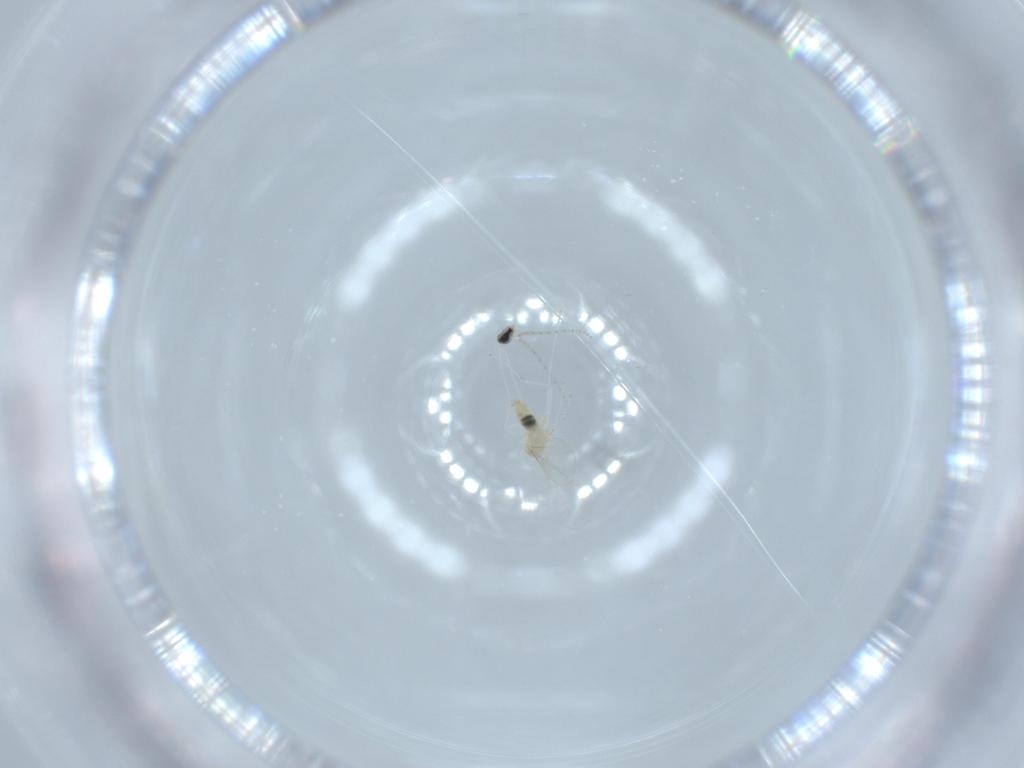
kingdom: Animalia
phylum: Arthropoda
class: Insecta
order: Diptera
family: Cecidomyiidae
